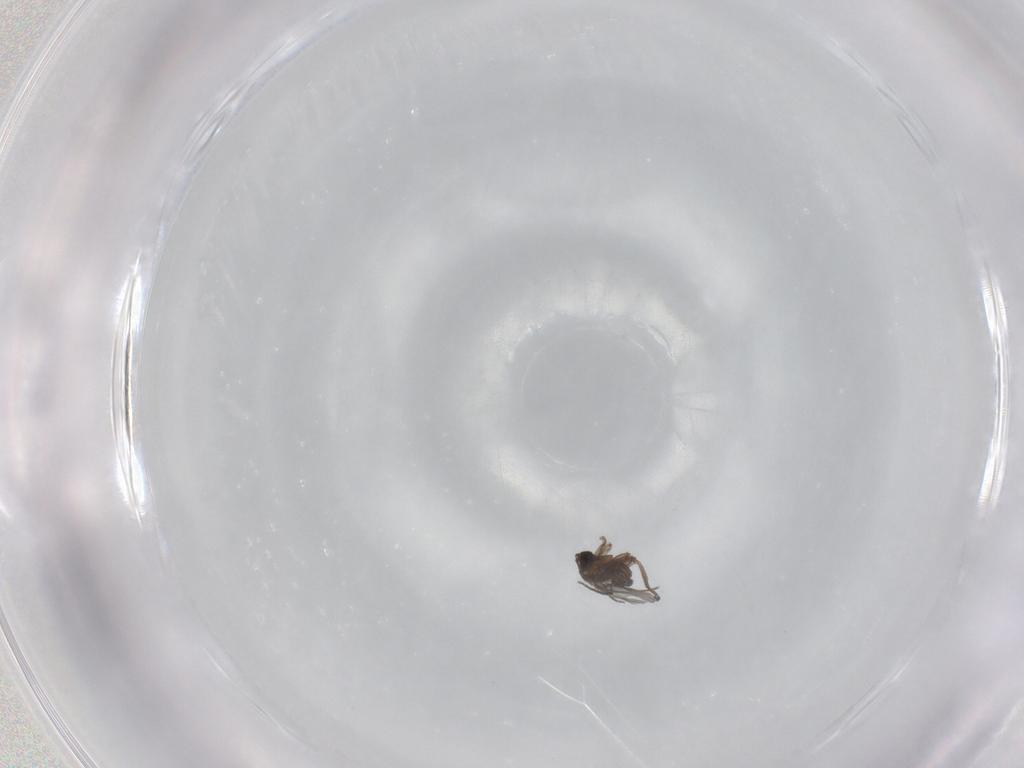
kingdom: Animalia
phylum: Arthropoda
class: Insecta
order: Diptera
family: Sciaridae
